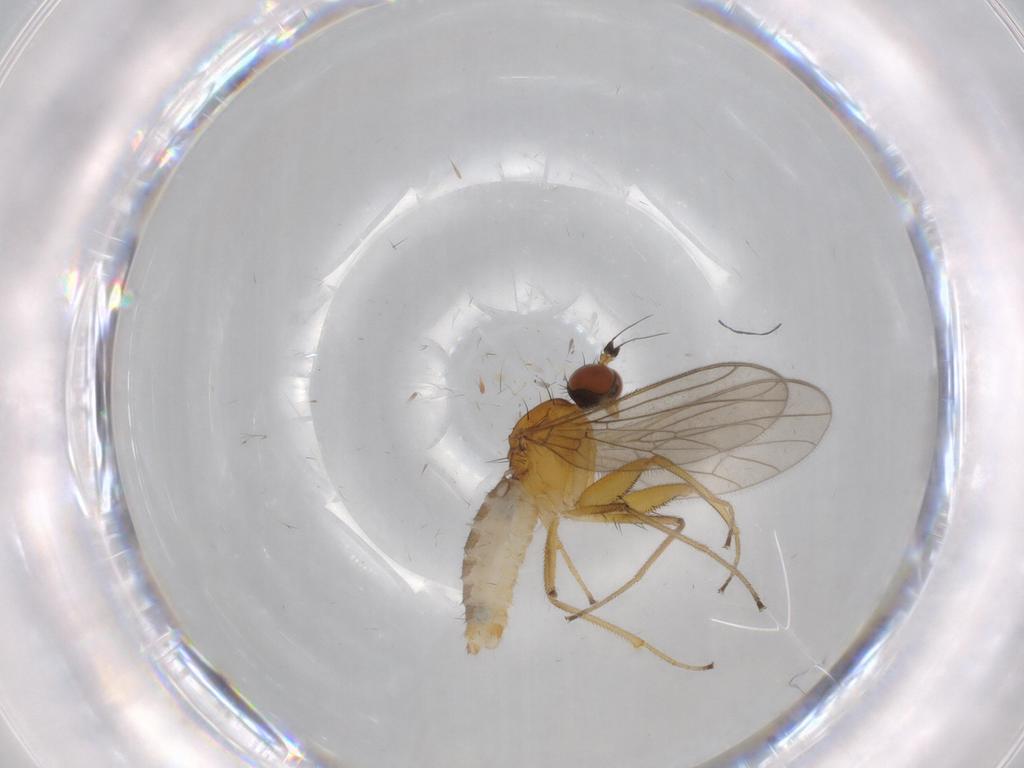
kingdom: Animalia
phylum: Arthropoda
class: Insecta
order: Diptera
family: Empididae
